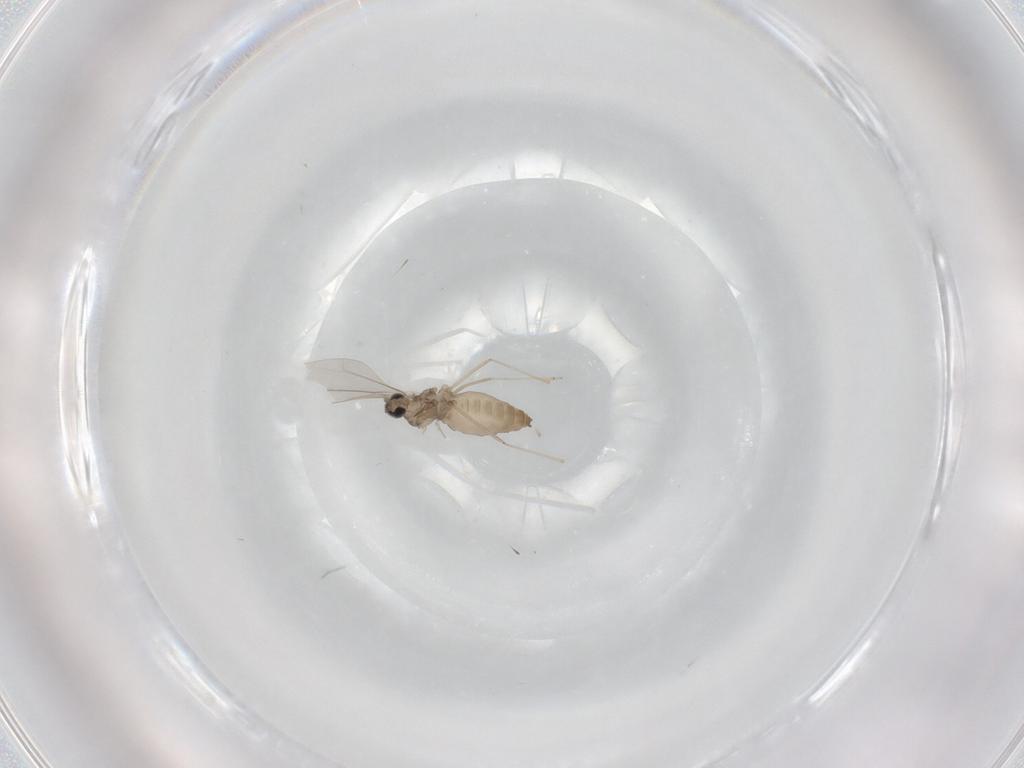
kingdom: Animalia
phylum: Arthropoda
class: Insecta
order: Diptera
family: Cecidomyiidae
